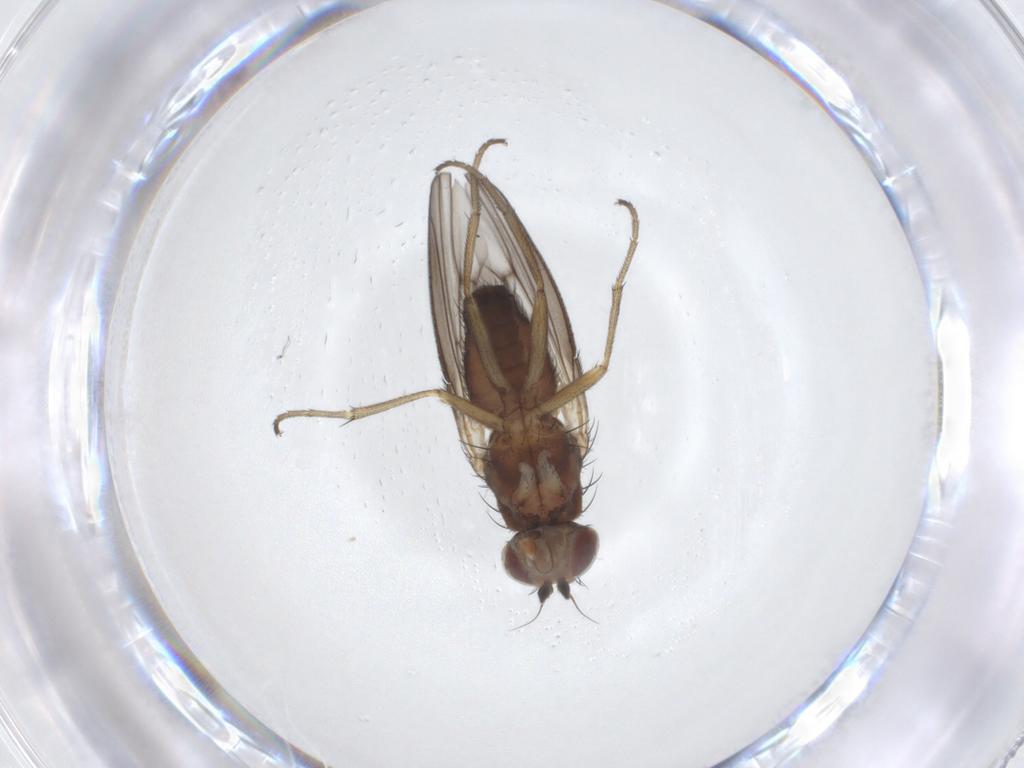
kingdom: Animalia
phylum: Arthropoda
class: Insecta
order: Diptera
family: Heleomyzidae
